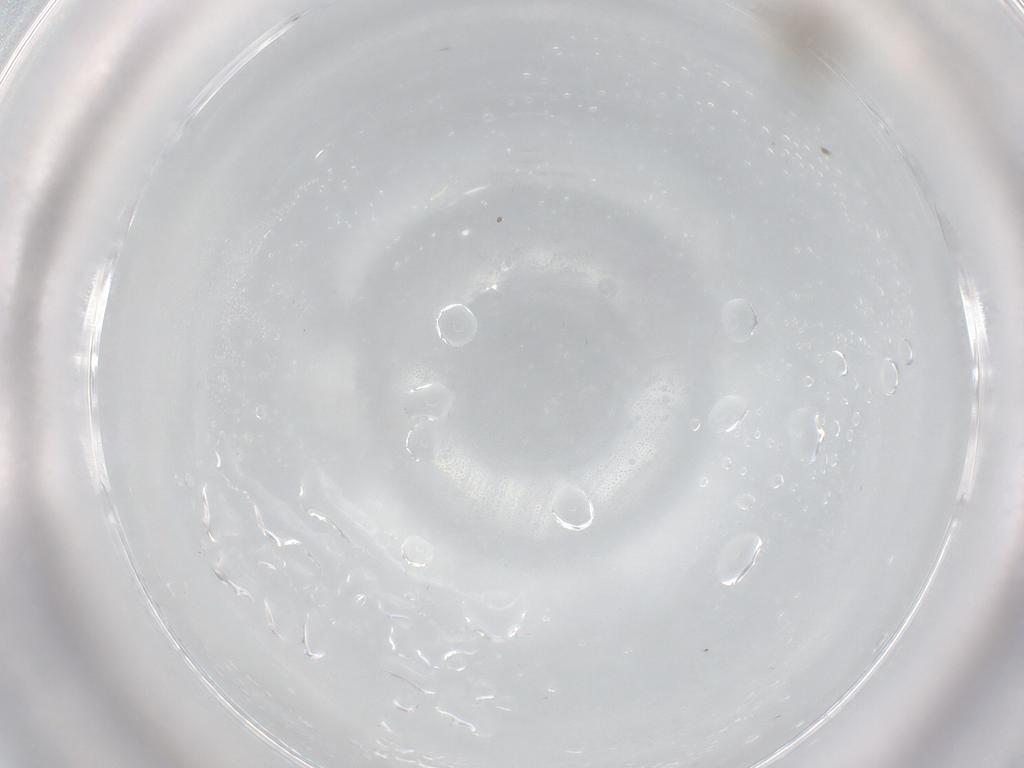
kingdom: Animalia
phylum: Arthropoda
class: Insecta
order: Diptera
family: Chironomidae
